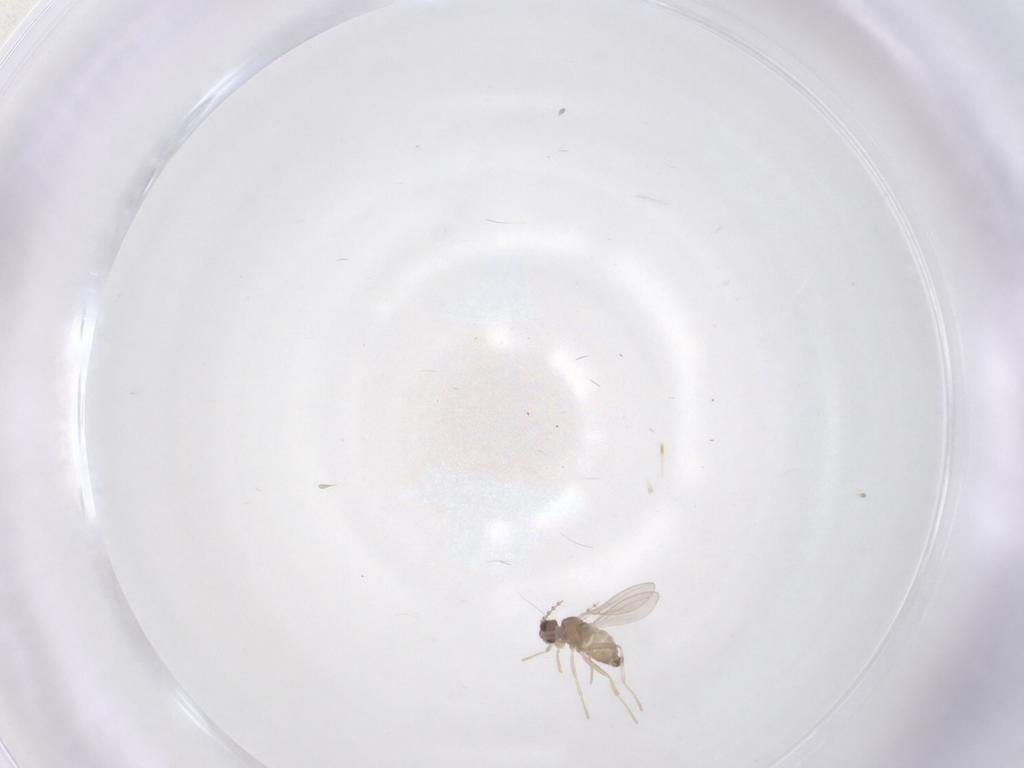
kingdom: Animalia
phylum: Arthropoda
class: Insecta
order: Diptera
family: Cecidomyiidae
